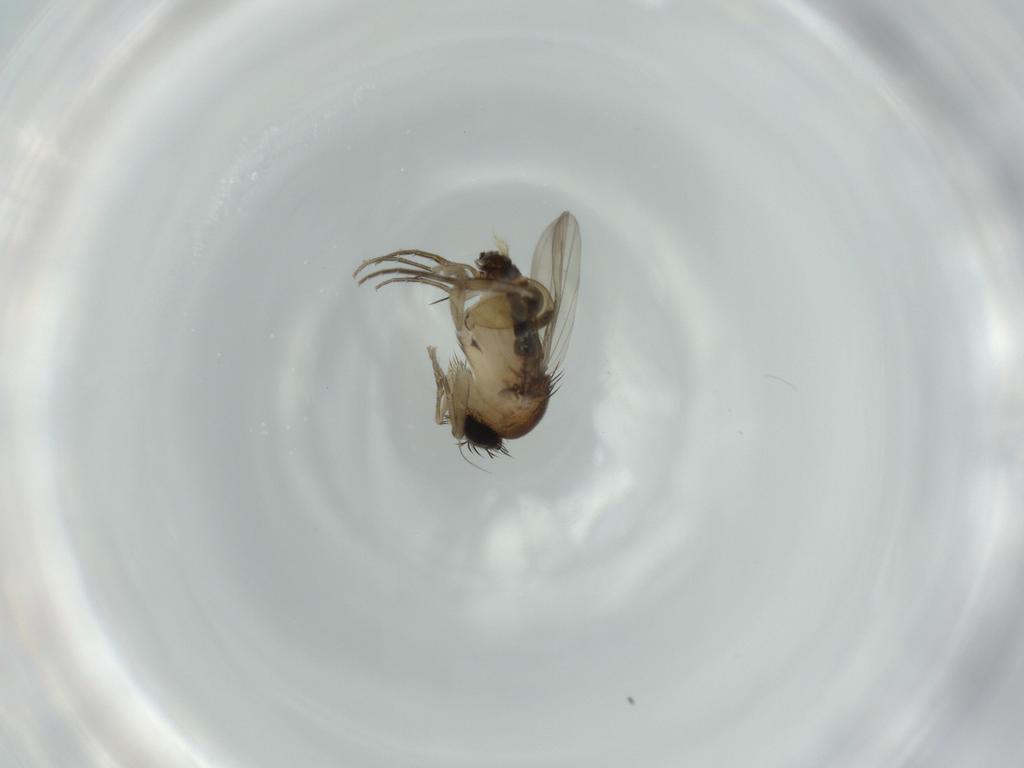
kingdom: Animalia
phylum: Arthropoda
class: Insecta
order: Diptera
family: Phoridae
